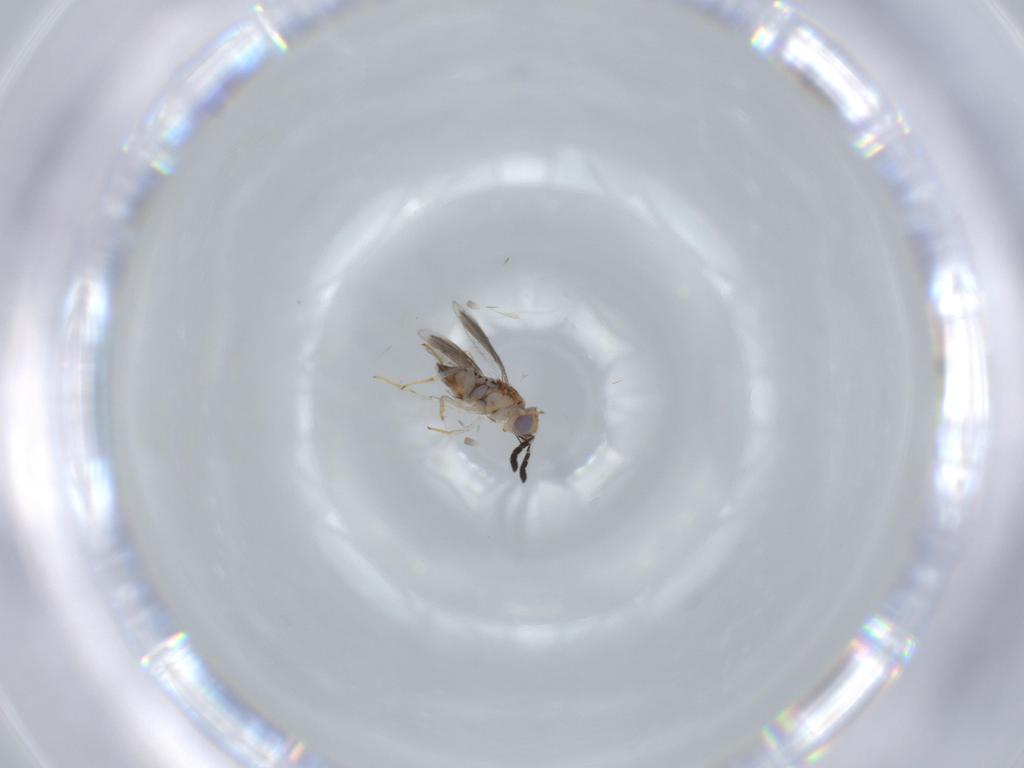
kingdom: Animalia
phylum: Arthropoda
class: Insecta
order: Hymenoptera
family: Aphelinidae
